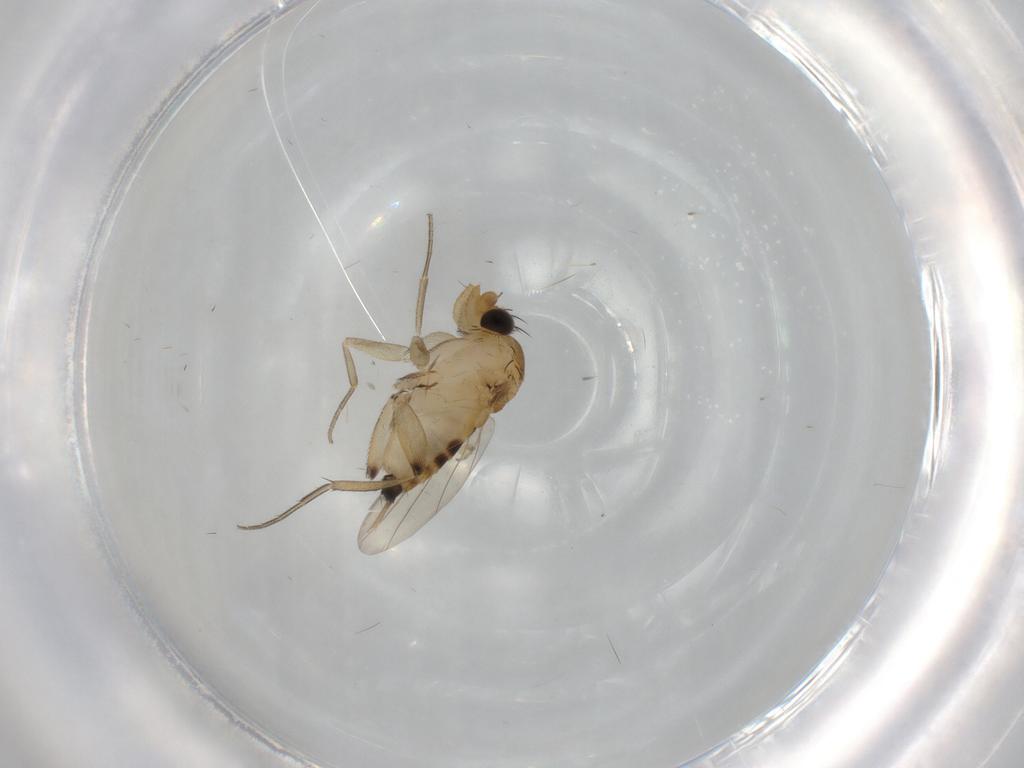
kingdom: Animalia
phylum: Arthropoda
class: Insecta
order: Diptera
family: Phoridae
